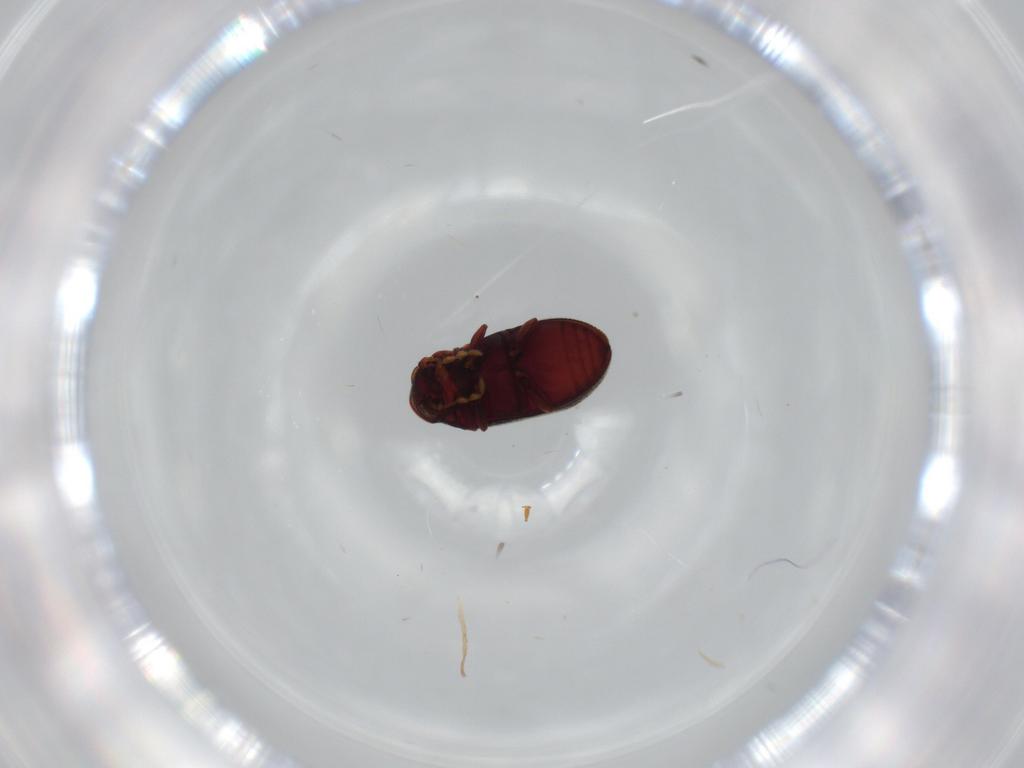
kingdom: Animalia
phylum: Arthropoda
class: Insecta
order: Coleoptera
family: Anobiidae
